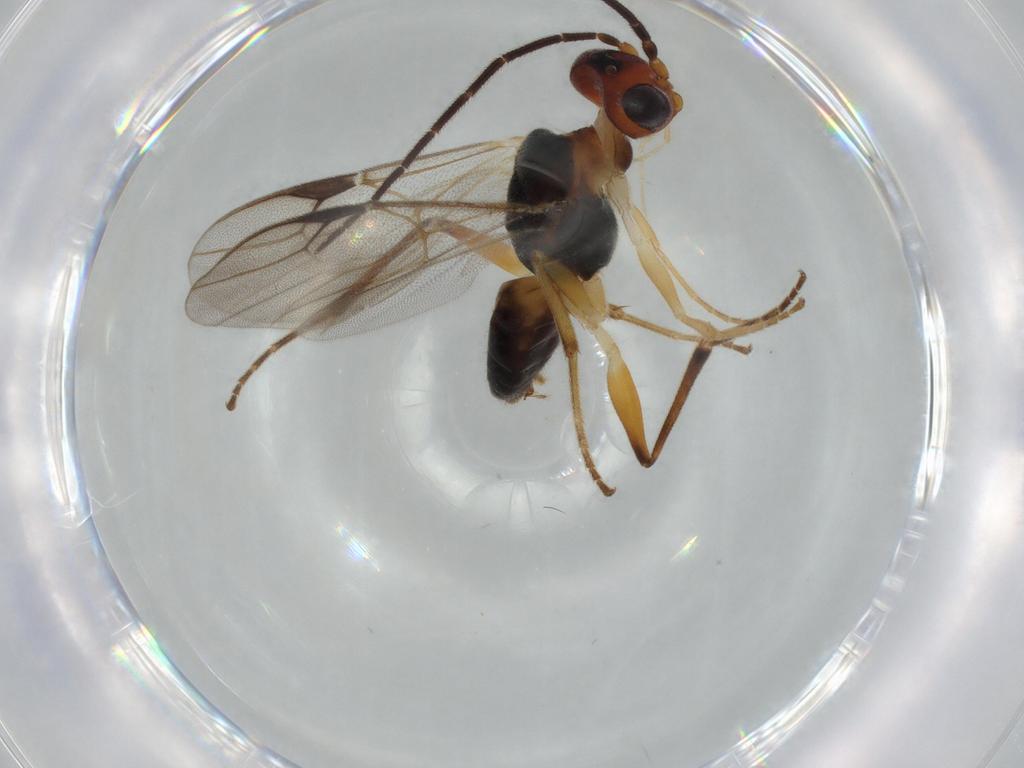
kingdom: Animalia
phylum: Arthropoda
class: Insecta
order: Hymenoptera
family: Dryinidae
